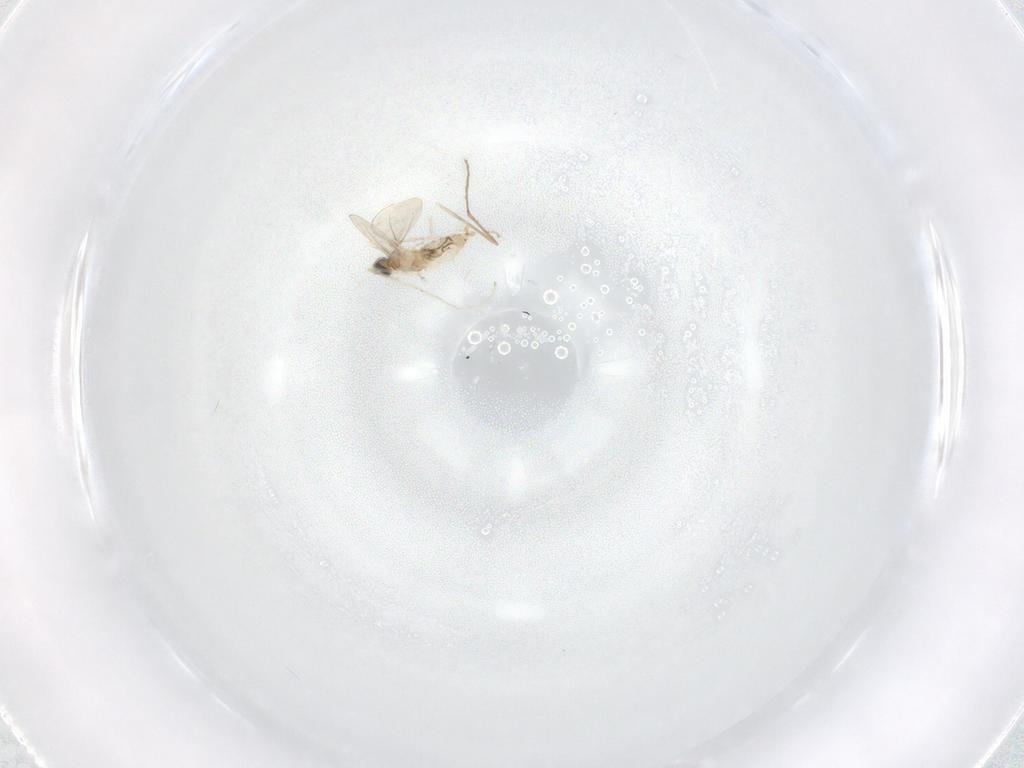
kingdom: Animalia
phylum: Arthropoda
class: Insecta
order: Diptera
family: Cecidomyiidae
